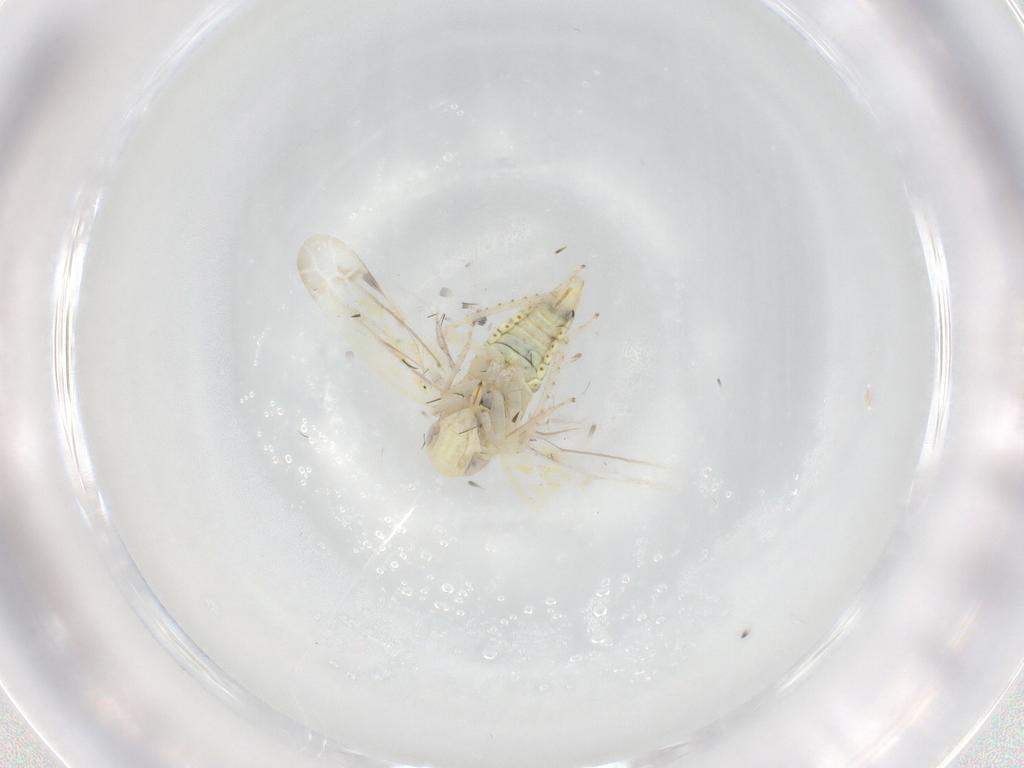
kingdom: Animalia
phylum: Arthropoda
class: Insecta
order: Hemiptera
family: Cicadellidae
